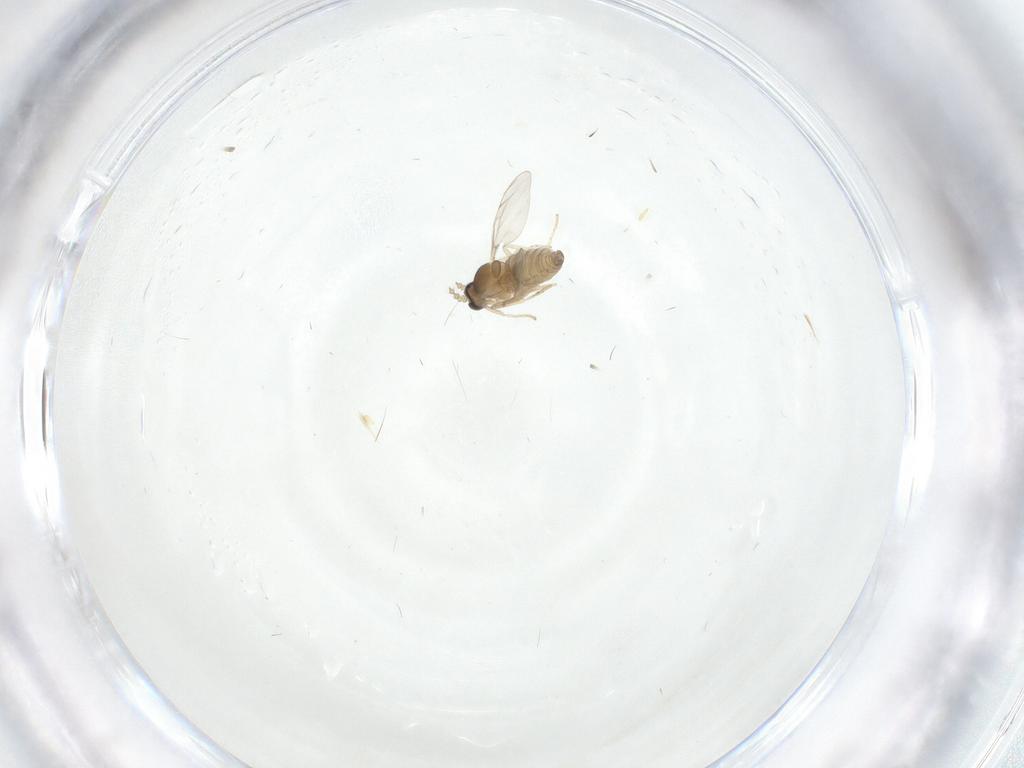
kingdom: Animalia
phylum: Arthropoda
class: Insecta
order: Diptera
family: Cecidomyiidae
